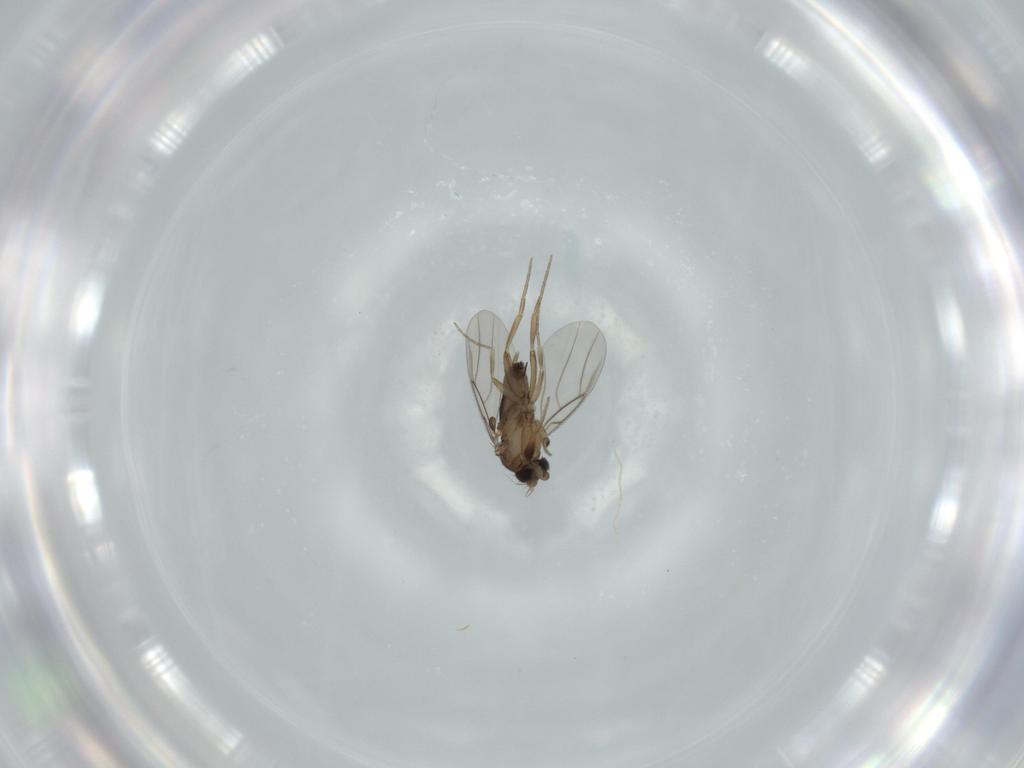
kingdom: Animalia
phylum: Arthropoda
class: Insecta
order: Diptera
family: Phoridae
